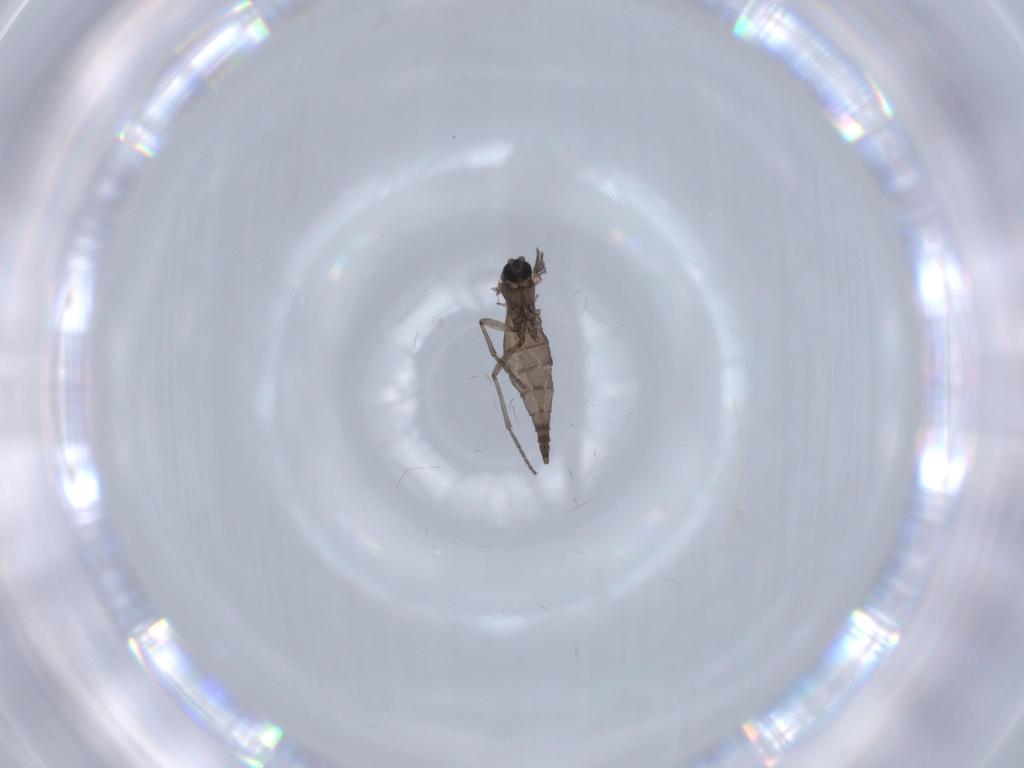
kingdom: Animalia
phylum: Arthropoda
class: Insecta
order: Diptera
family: Sciaridae
